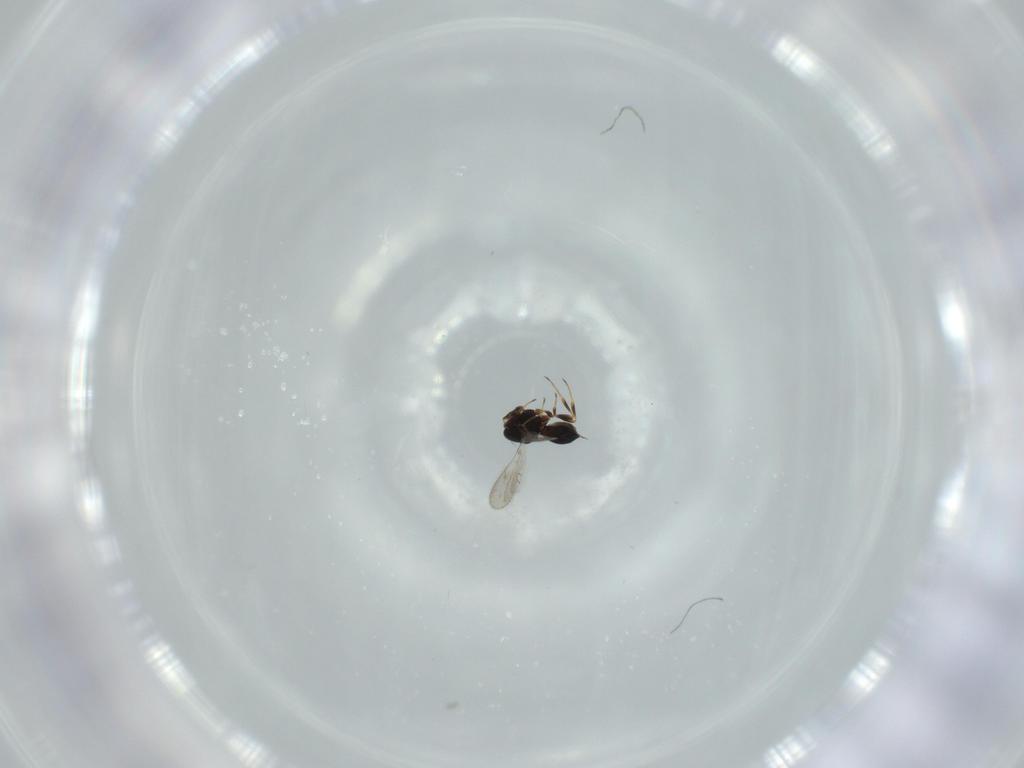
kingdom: Animalia
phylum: Arthropoda
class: Insecta
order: Hymenoptera
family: Scelionidae
